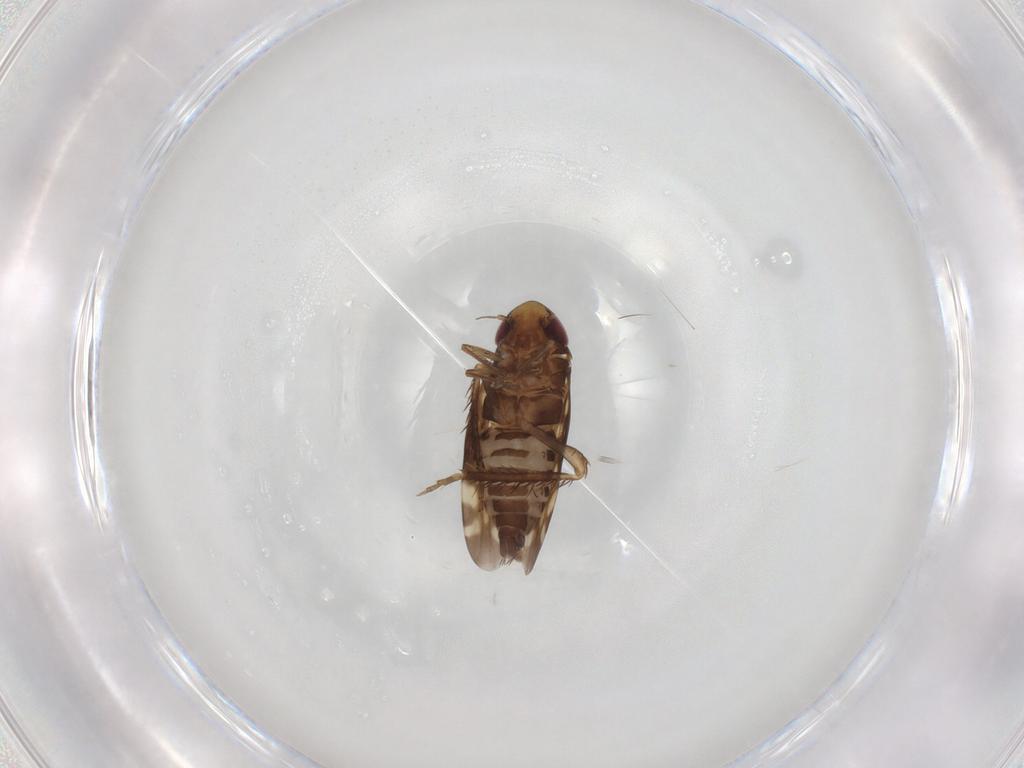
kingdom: Animalia
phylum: Arthropoda
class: Insecta
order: Hemiptera
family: Cicadellidae
